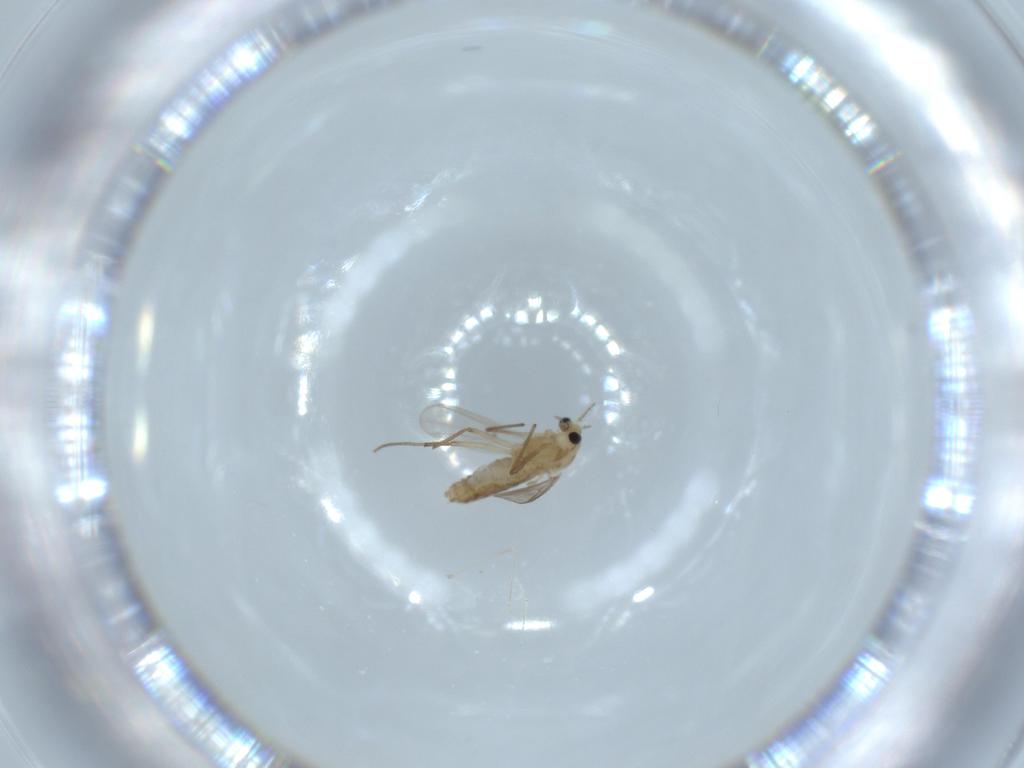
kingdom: Animalia
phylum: Arthropoda
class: Insecta
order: Diptera
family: Chironomidae
